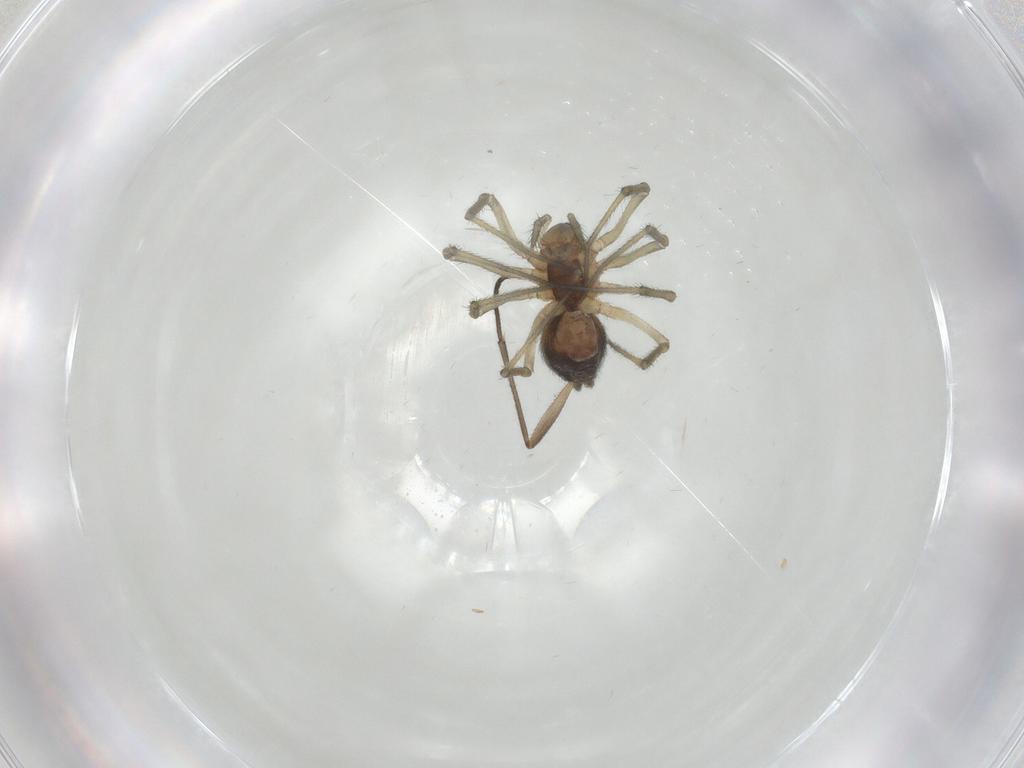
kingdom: Animalia
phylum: Arthropoda
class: Arachnida
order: Araneae
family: Linyphiidae
